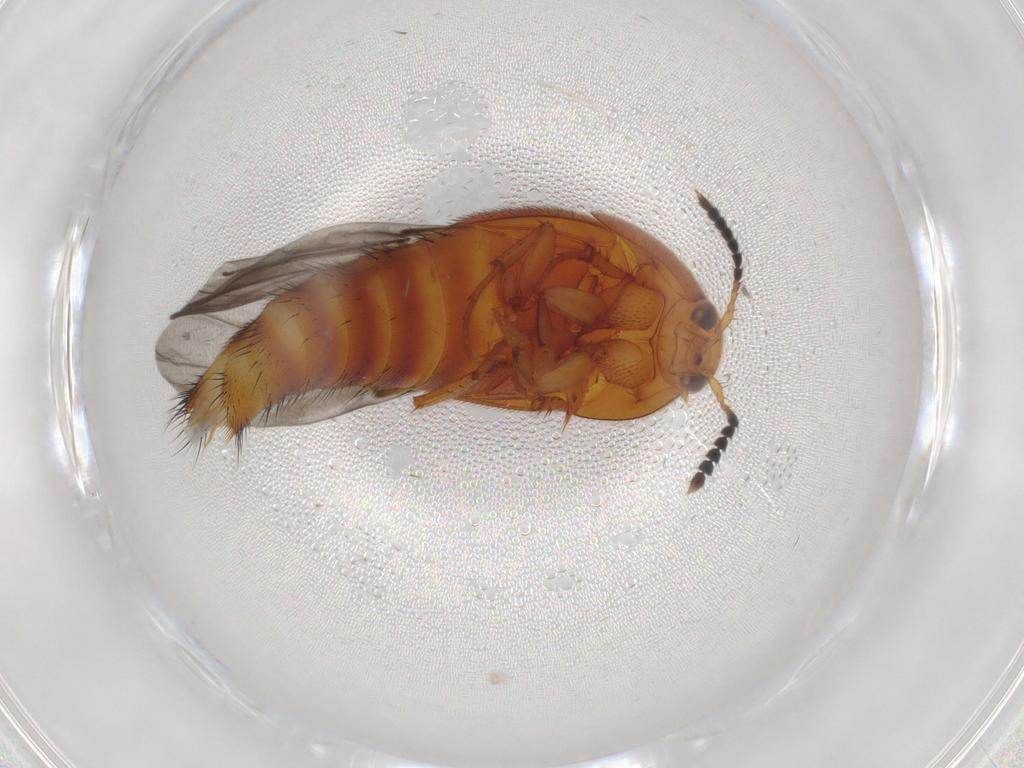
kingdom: Animalia
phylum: Arthropoda
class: Insecta
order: Coleoptera
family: Staphylinidae
